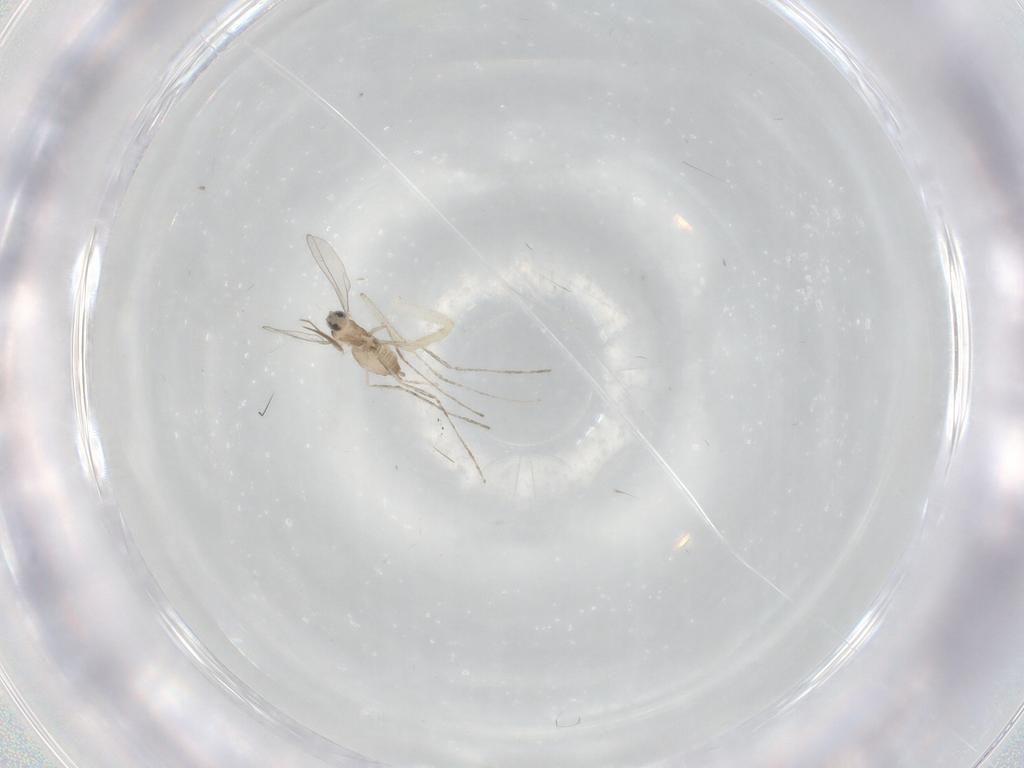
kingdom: Animalia
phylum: Arthropoda
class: Insecta
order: Diptera
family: Cecidomyiidae
